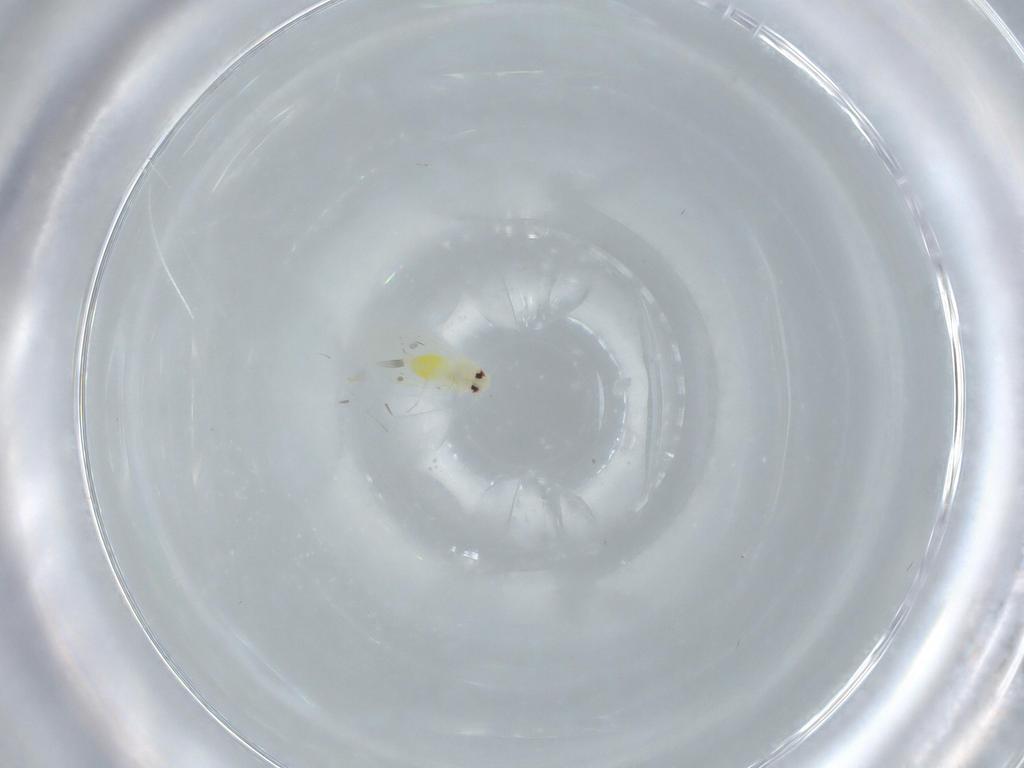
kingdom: Animalia
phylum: Arthropoda
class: Insecta
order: Hemiptera
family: Aleyrodidae
